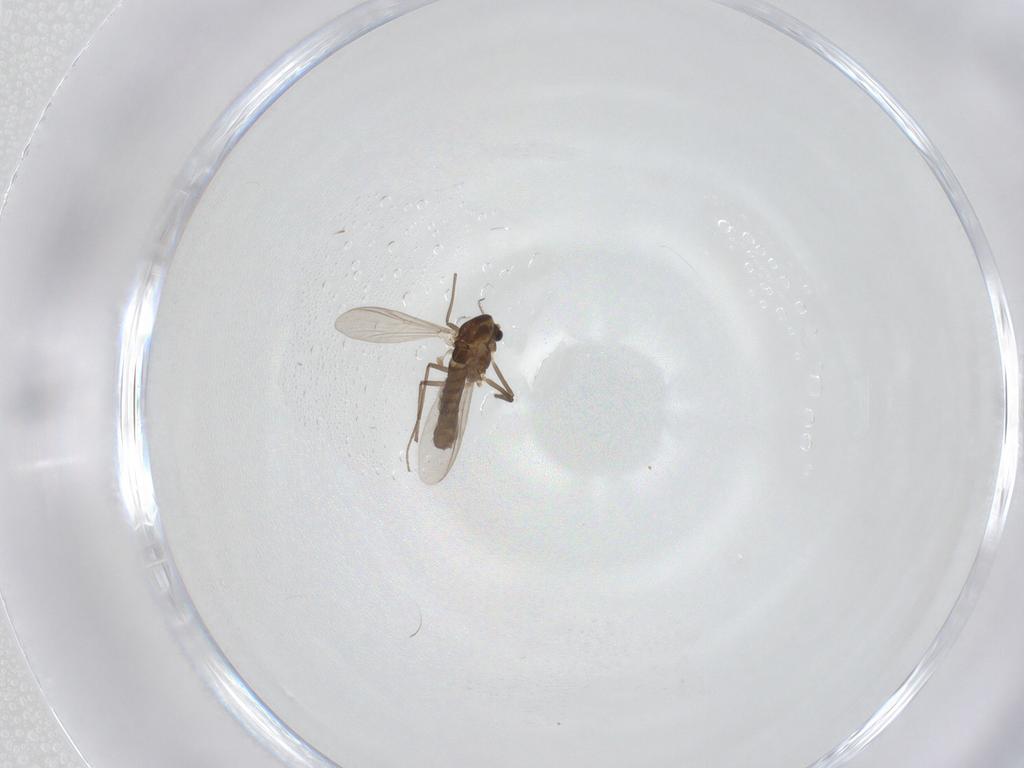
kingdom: Animalia
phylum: Arthropoda
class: Insecta
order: Diptera
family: Chironomidae
